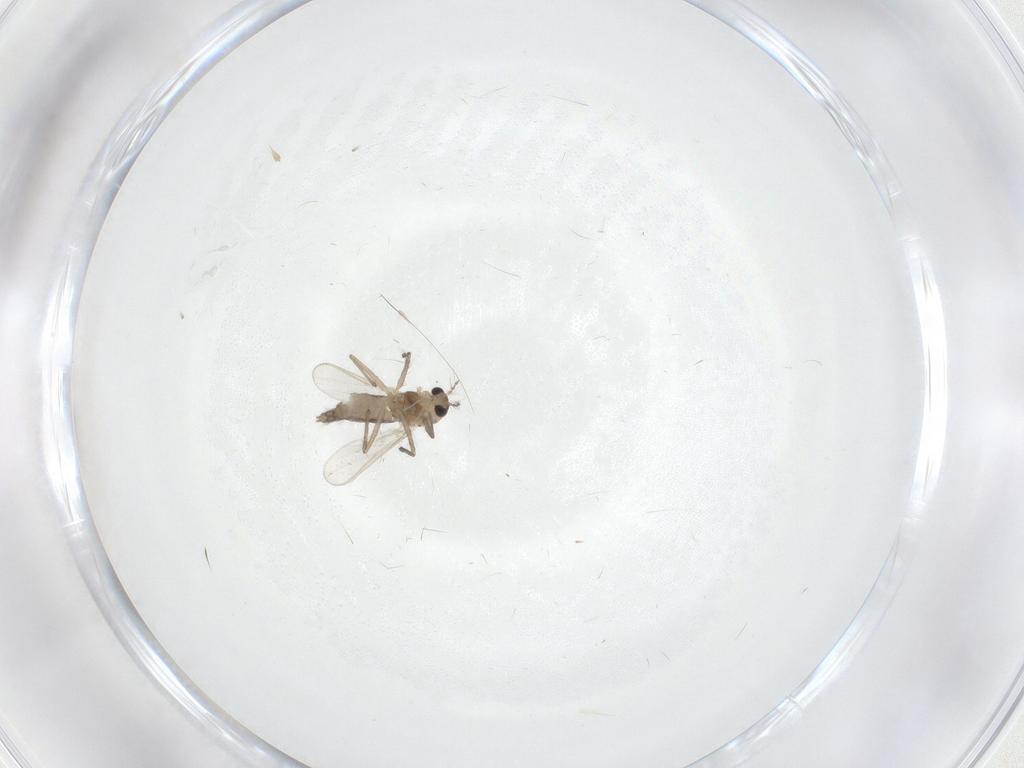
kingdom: Animalia
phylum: Arthropoda
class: Insecta
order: Diptera
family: Chironomidae
